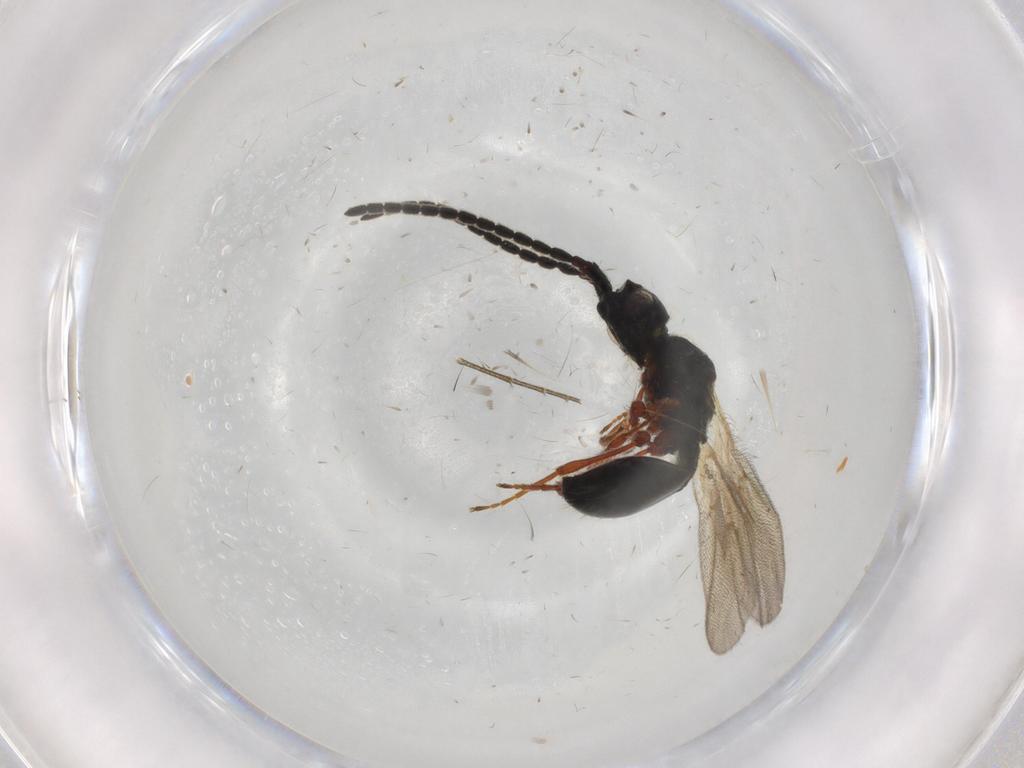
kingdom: Animalia
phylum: Arthropoda
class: Insecta
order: Hymenoptera
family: Diapriidae
